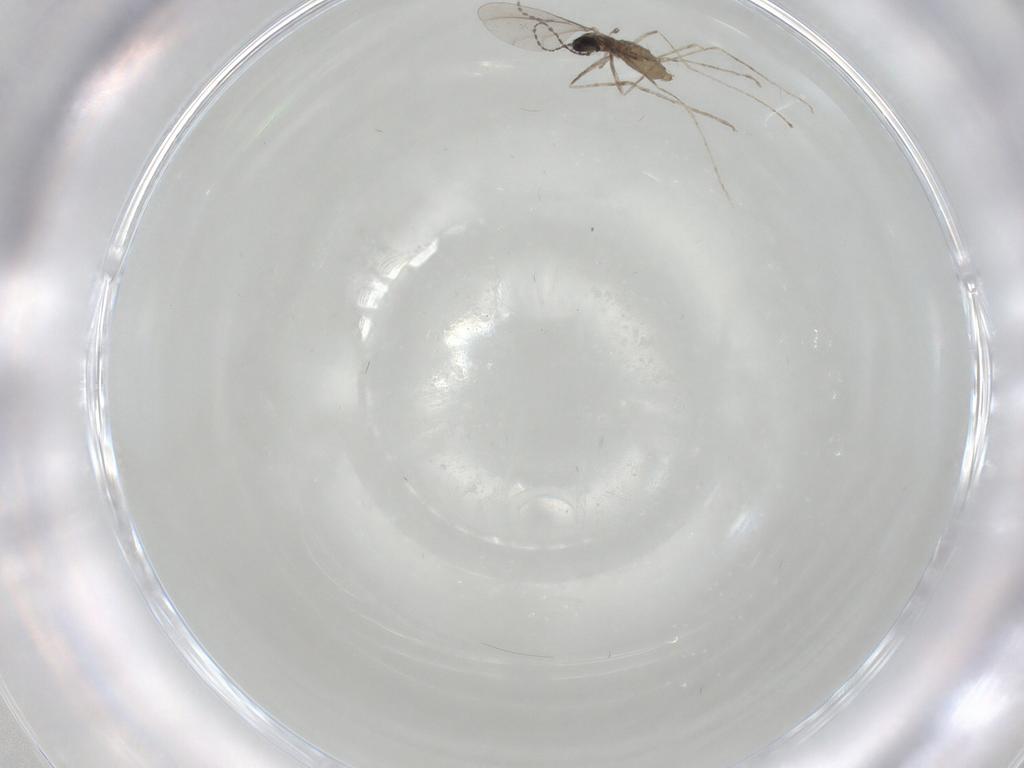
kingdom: Animalia
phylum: Arthropoda
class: Insecta
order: Diptera
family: Cecidomyiidae
